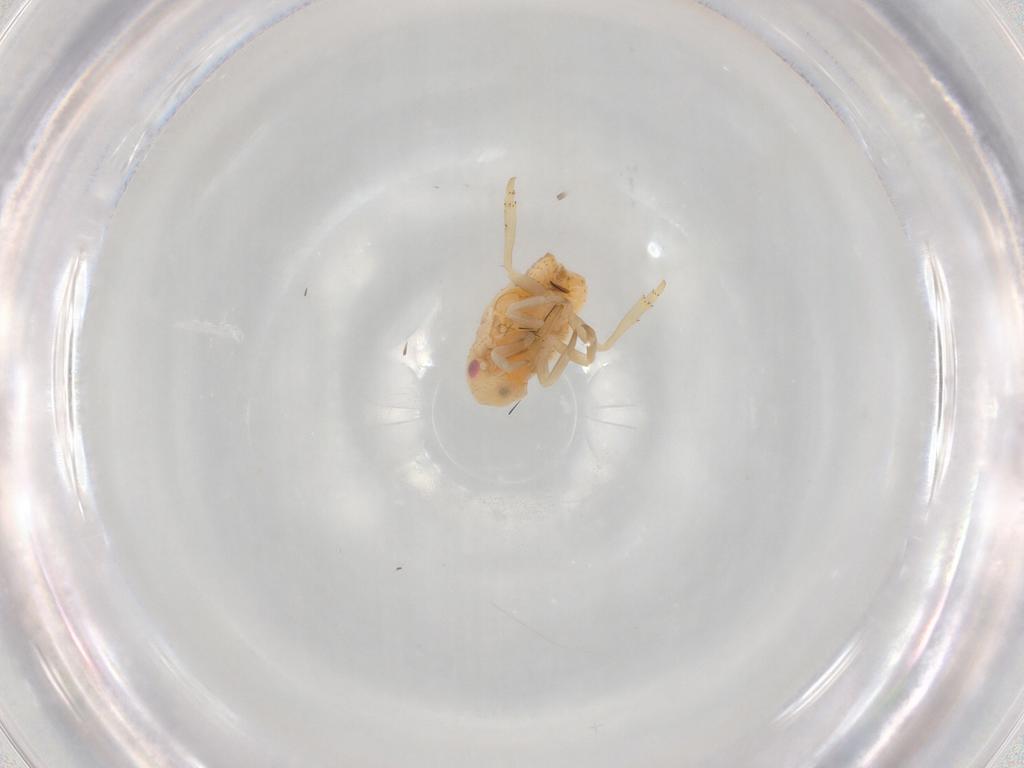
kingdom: Animalia
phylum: Arthropoda
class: Insecta
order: Hemiptera
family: Flatidae
